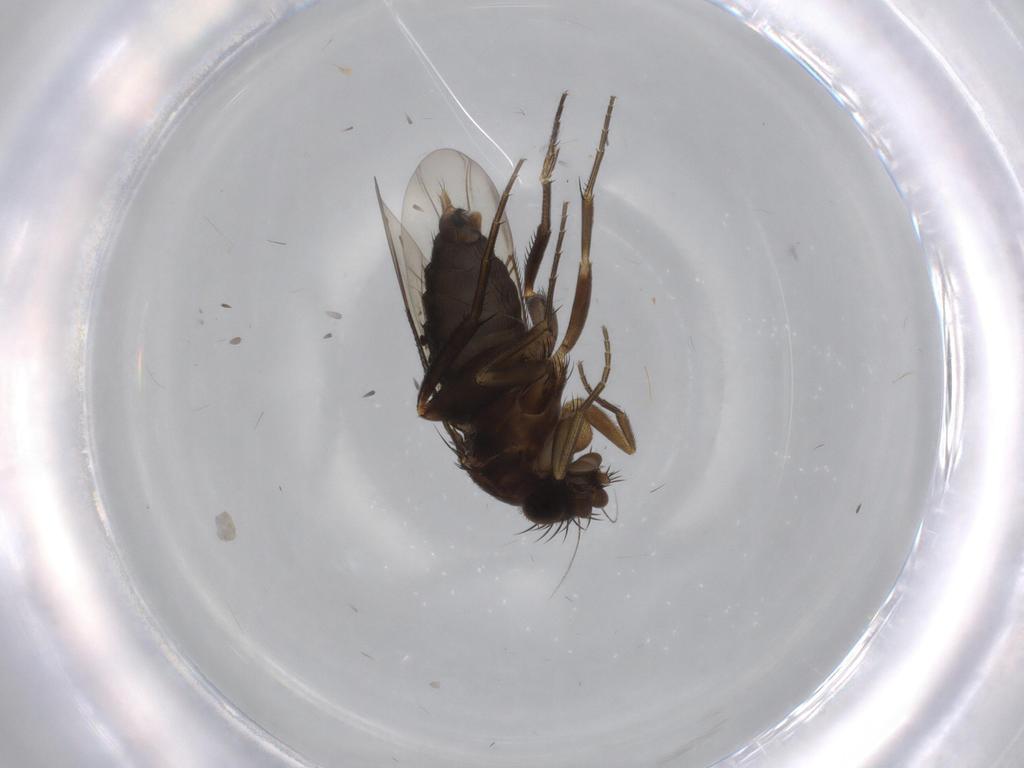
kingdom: Animalia
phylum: Arthropoda
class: Insecta
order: Diptera
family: Phoridae
